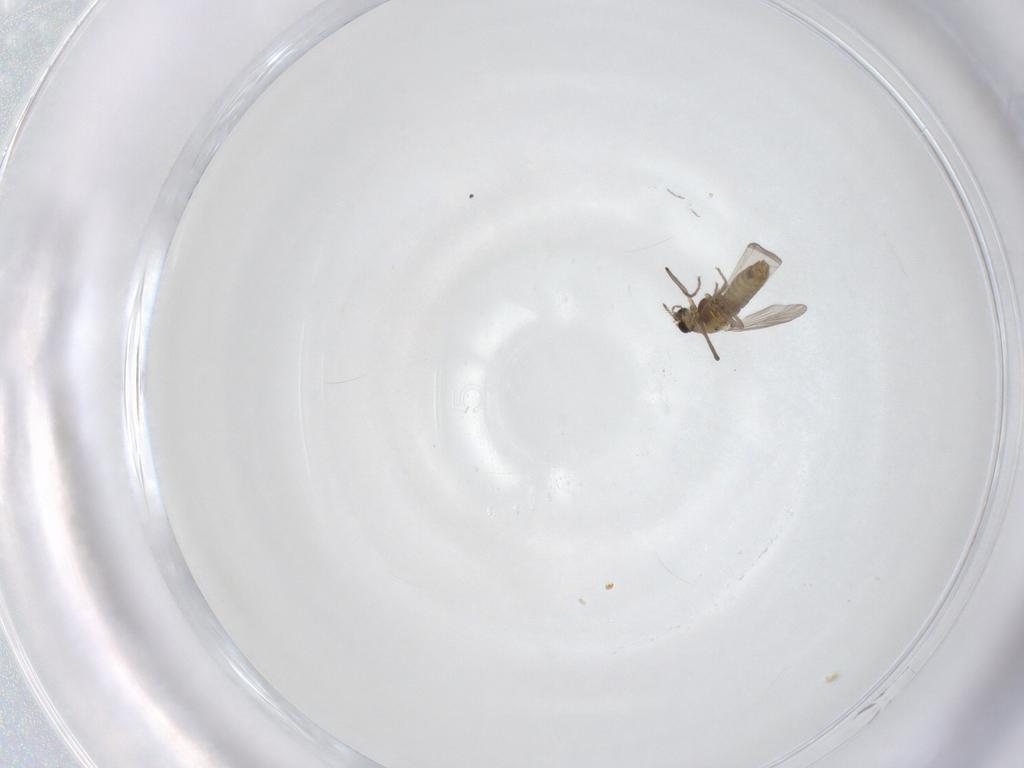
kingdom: Animalia
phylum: Arthropoda
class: Insecta
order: Diptera
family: Chironomidae
